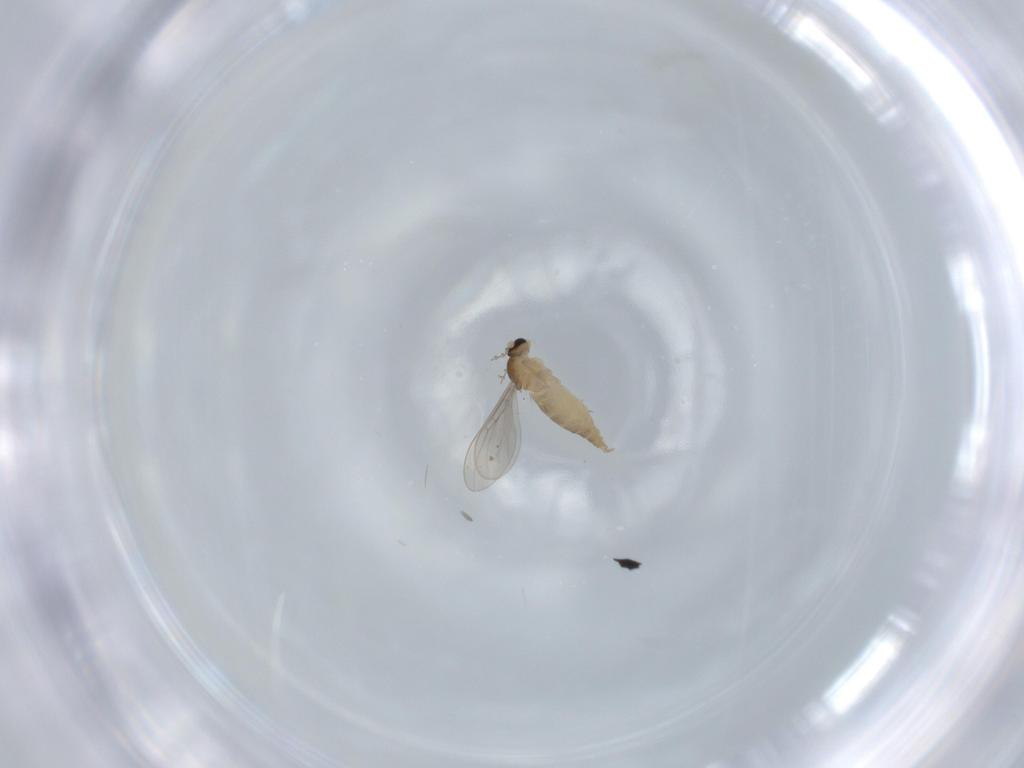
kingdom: Animalia
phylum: Arthropoda
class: Insecta
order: Diptera
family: Cecidomyiidae
